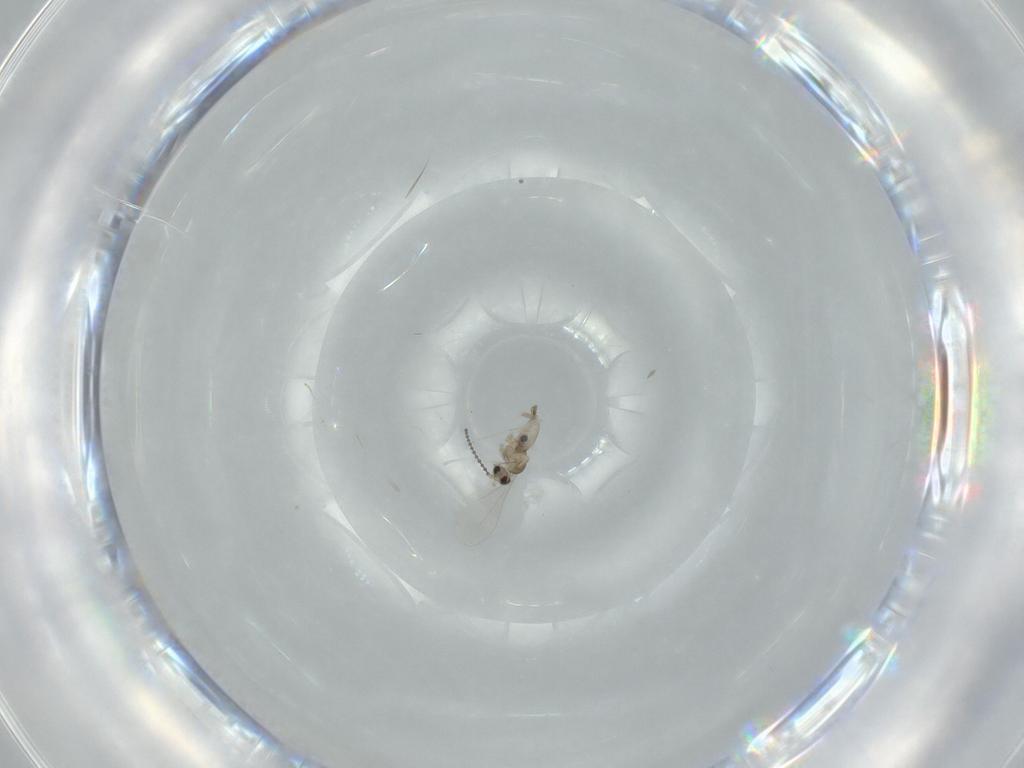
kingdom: Animalia
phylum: Arthropoda
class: Insecta
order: Diptera
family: Cecidomyiidae
